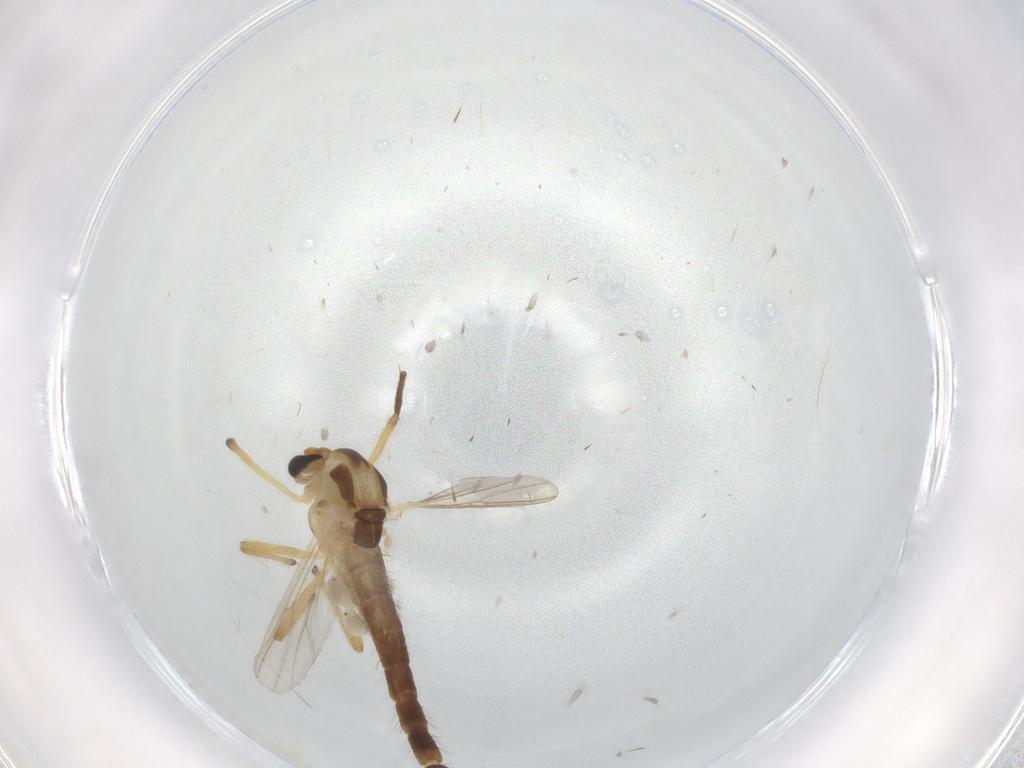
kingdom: Animalia
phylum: Arthropoda
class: Insecta
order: Diptera
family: Chironomidae
